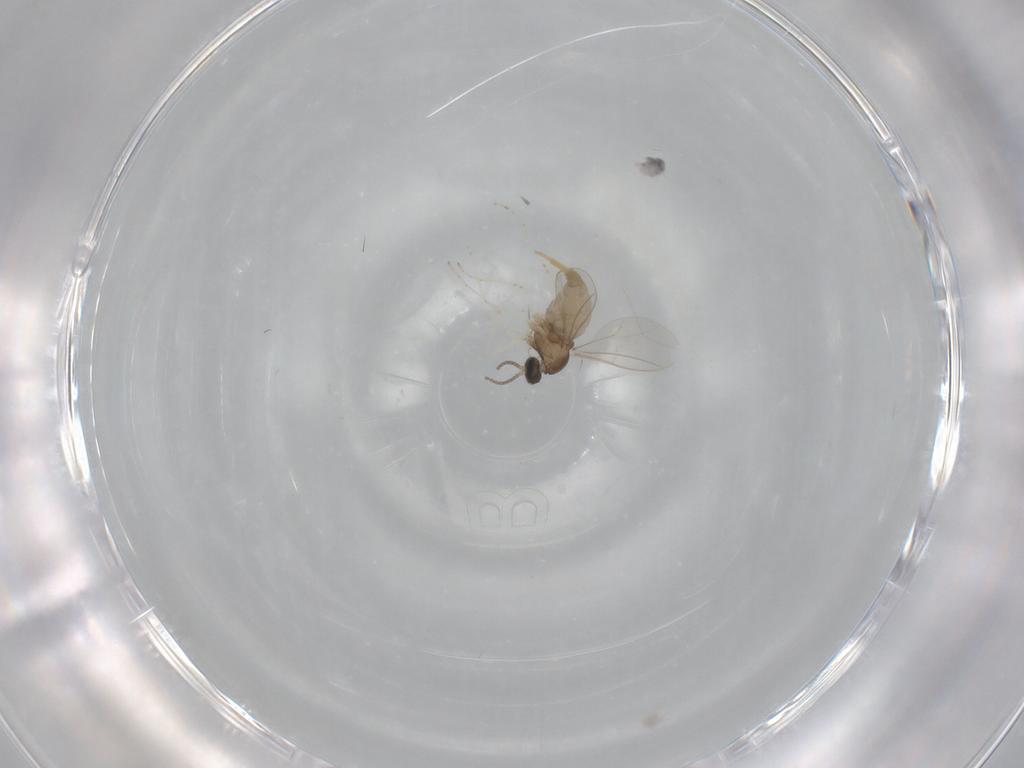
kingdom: Animalia
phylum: Arthropoda
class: Insecta
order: Diptera
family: Cecidomyiidae
